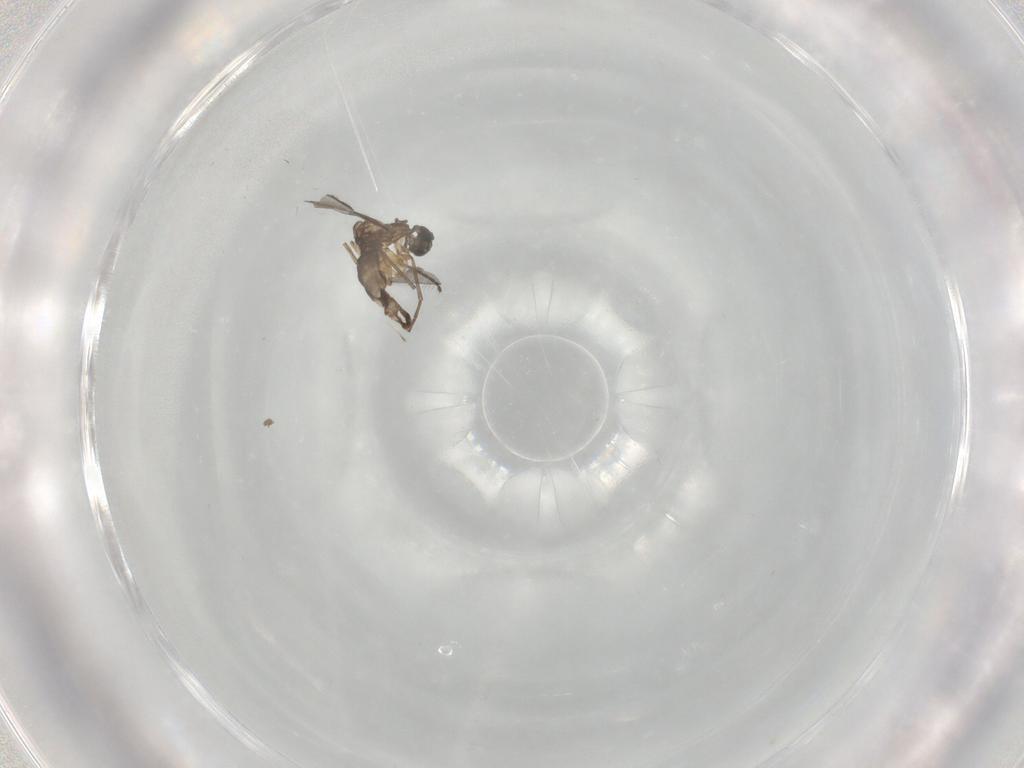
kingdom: Animalia
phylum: Arthropoda
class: Insecta
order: Diptera
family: Sciaridae
